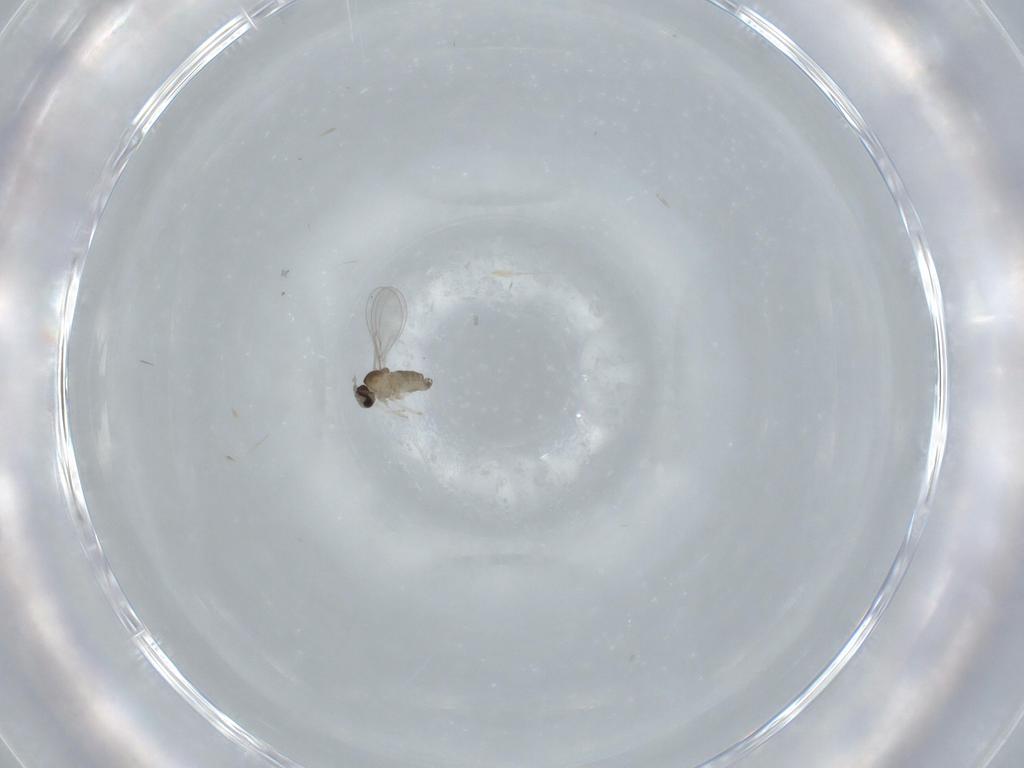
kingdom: Animalia
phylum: Arthropoda
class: Insecta
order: Diptera
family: Cecidomyiidae
